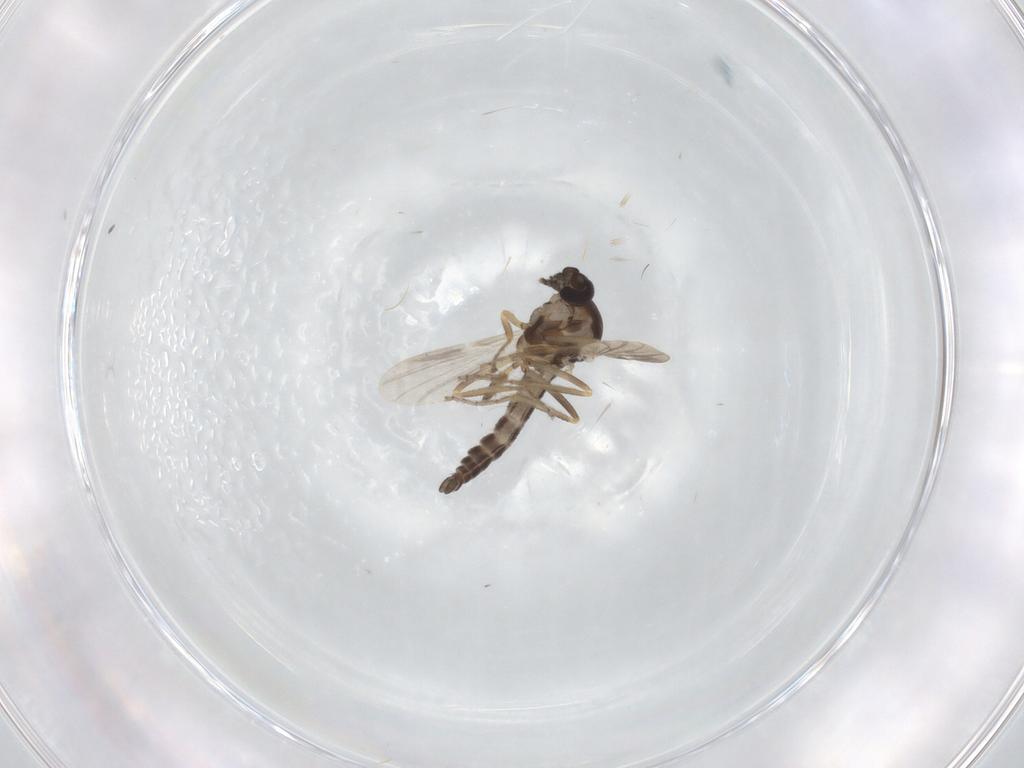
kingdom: Animalia
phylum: Arthropoda
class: Insecta
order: Diptera
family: Ceratopogonidae
